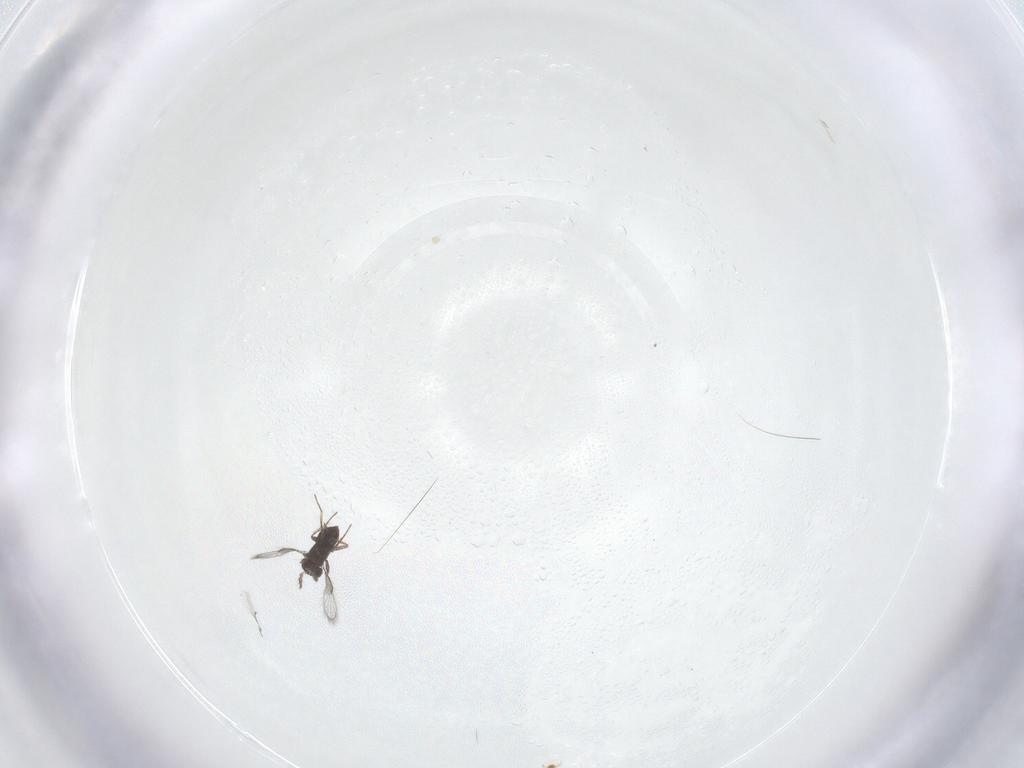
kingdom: Animalia
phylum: Arthropoda
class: Insecta
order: Hymenoptera
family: Trichogrammatidae
